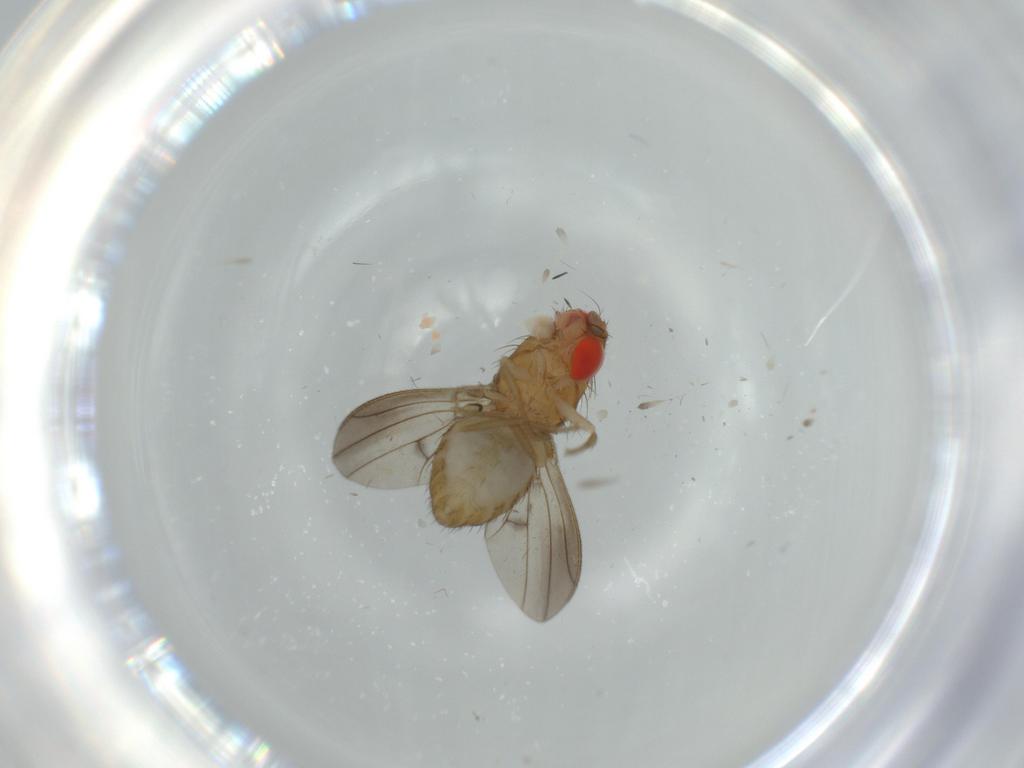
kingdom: Animalia
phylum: Arthropoda
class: Insecta
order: Diptera
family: Drosophilidae
